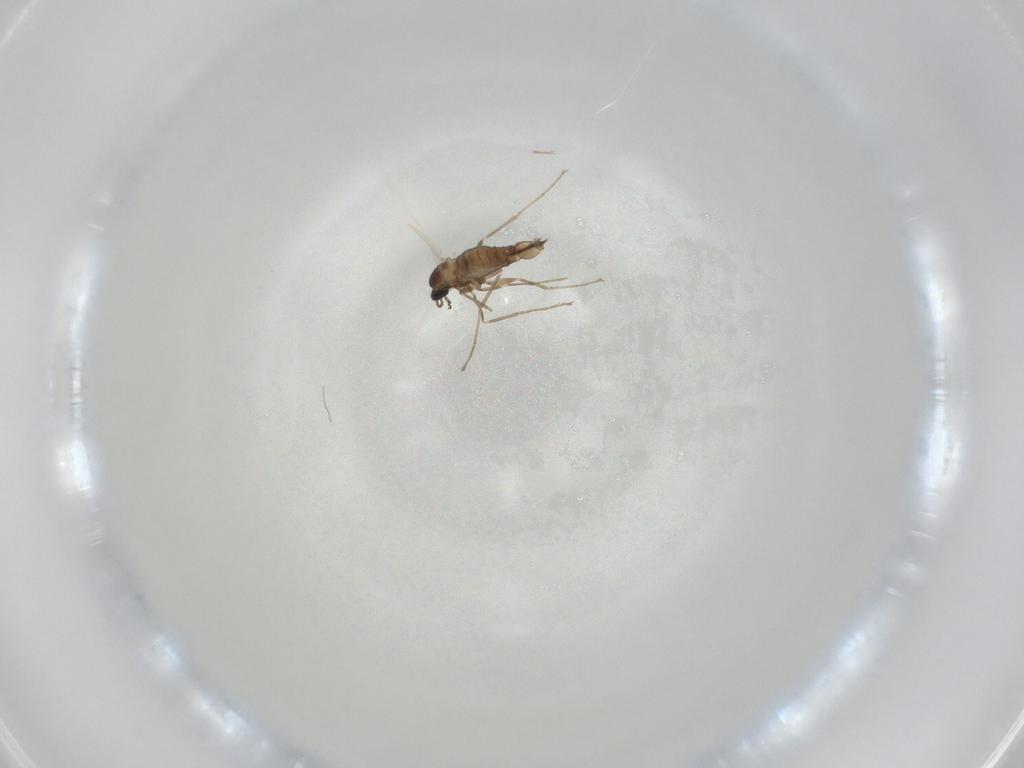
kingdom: Animalia
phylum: Arthropoda
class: Insecta
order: Diptera
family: Cecidomyiidae
